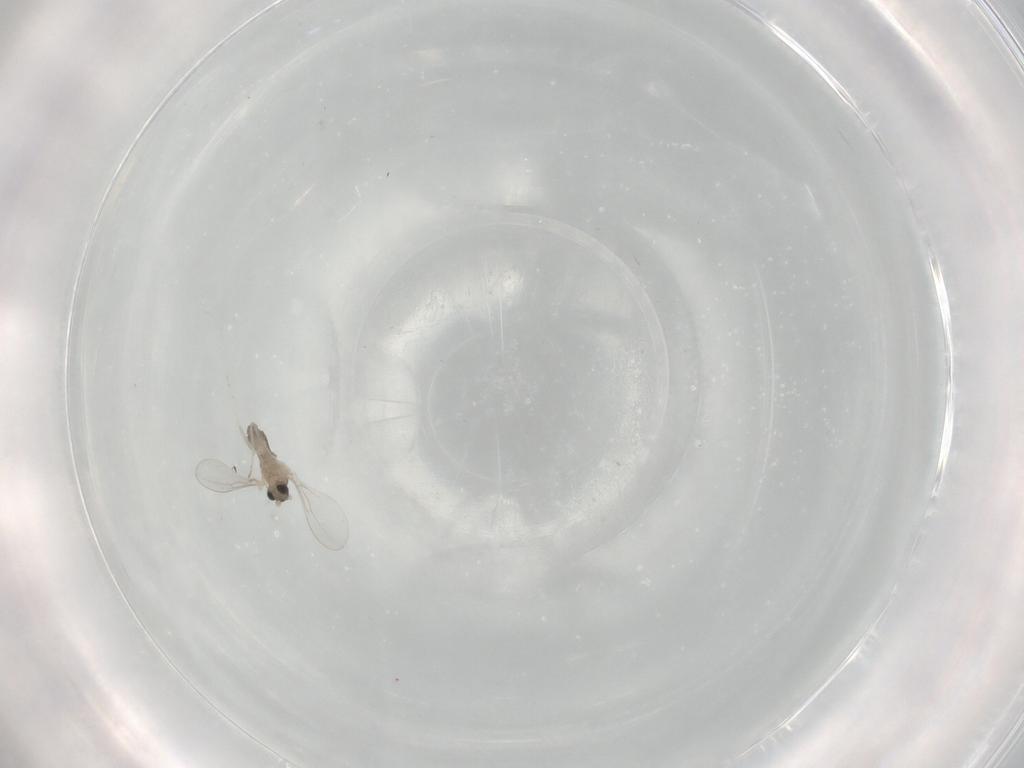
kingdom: Animalia
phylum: Arthropoda
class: Insecta
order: Diptera
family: Cecidomyiidae
